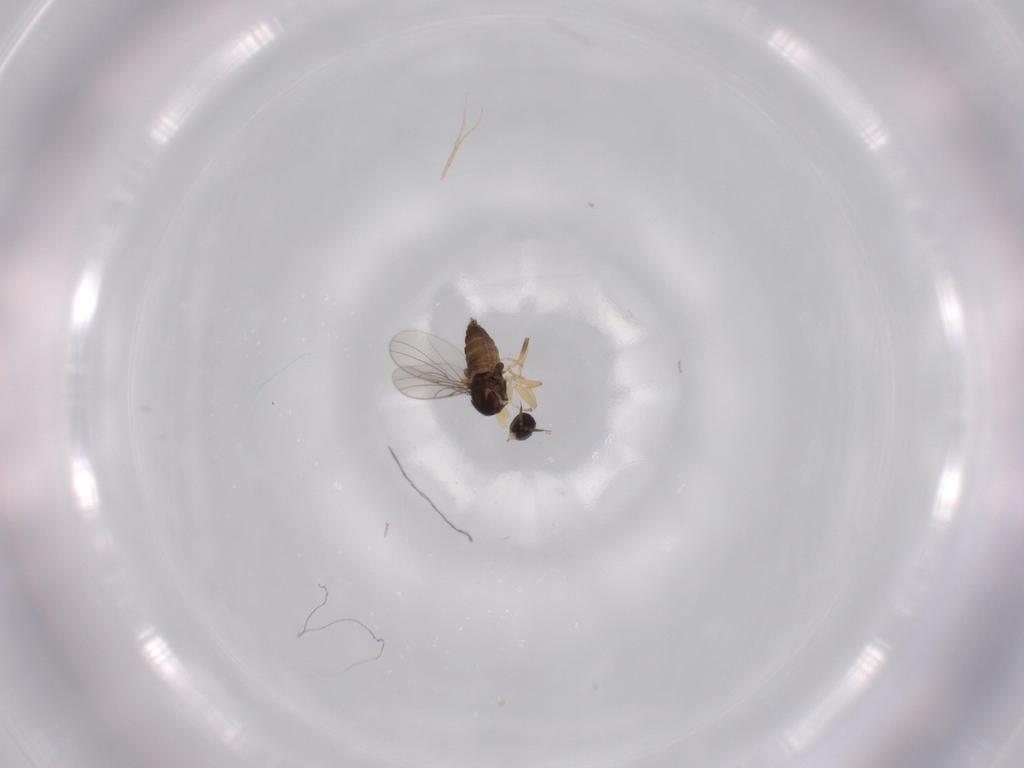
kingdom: Animalia
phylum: Arthropoda
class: Insecta
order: Diptera
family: Hybotidae
